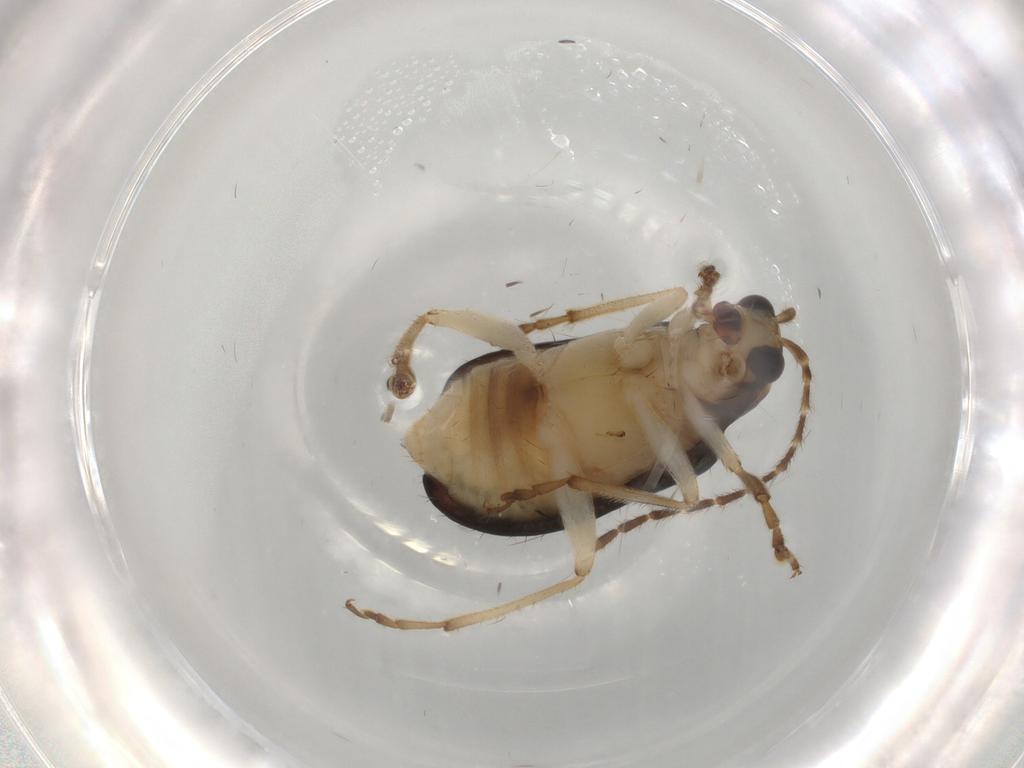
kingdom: Animalia
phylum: Arthropoda
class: Insecta
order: Coleoptera
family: Chrysomelidae
